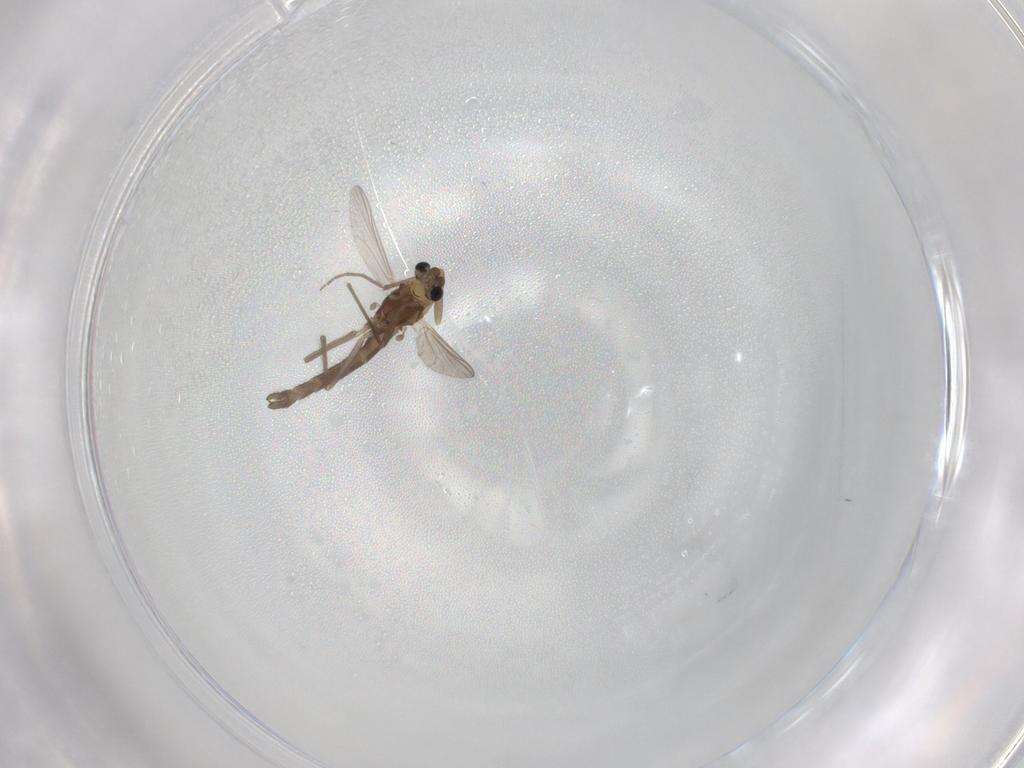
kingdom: Animalia
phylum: Arthropoda
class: Insecta
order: Diptera
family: Chironomidae
